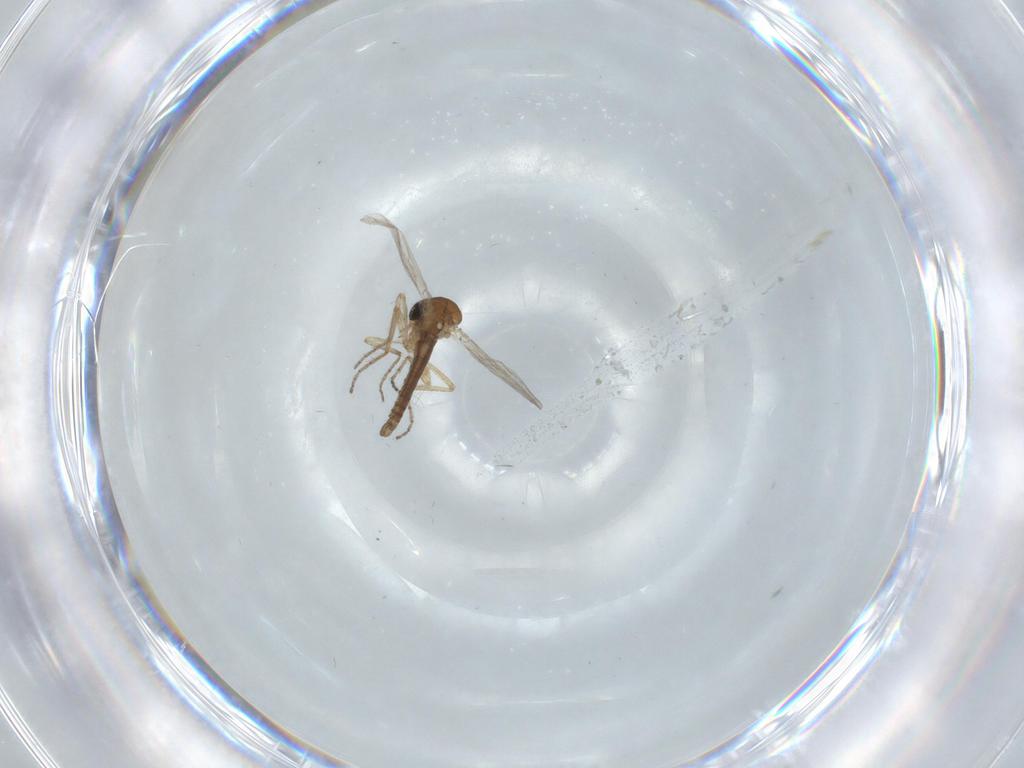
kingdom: Animalia
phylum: Arthropoda
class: Insecta
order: Diptera
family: Ceratopogonidae
